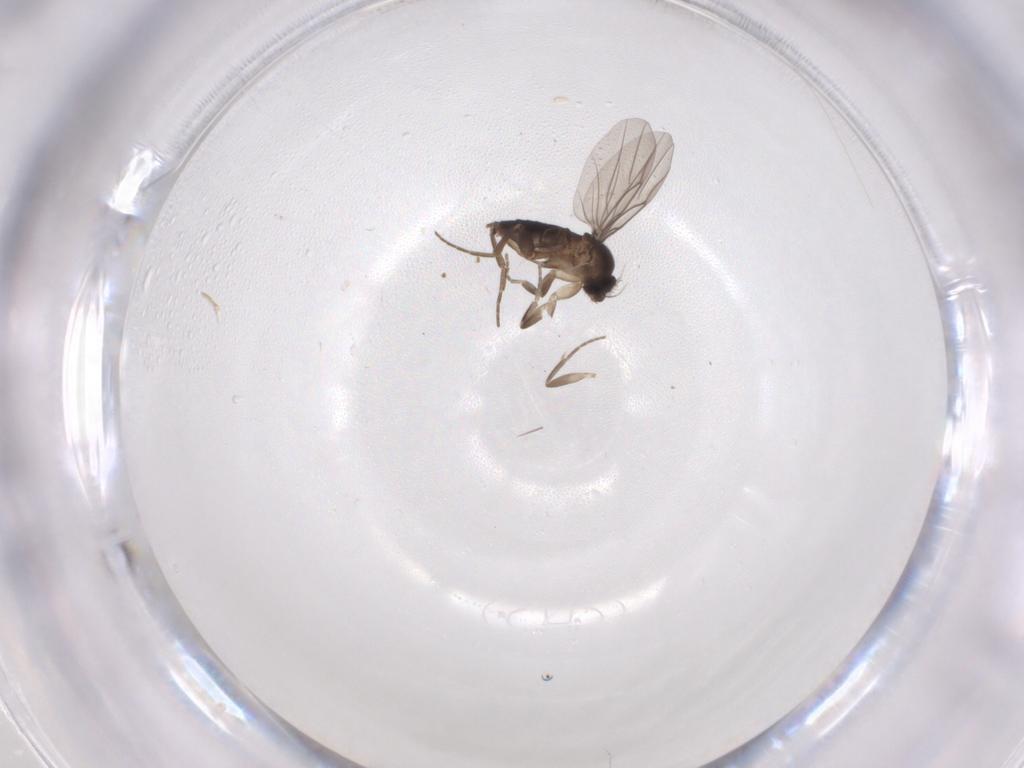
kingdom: Animalia
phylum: Arthropoda
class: Insecta
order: Diptera
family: Phoridae
